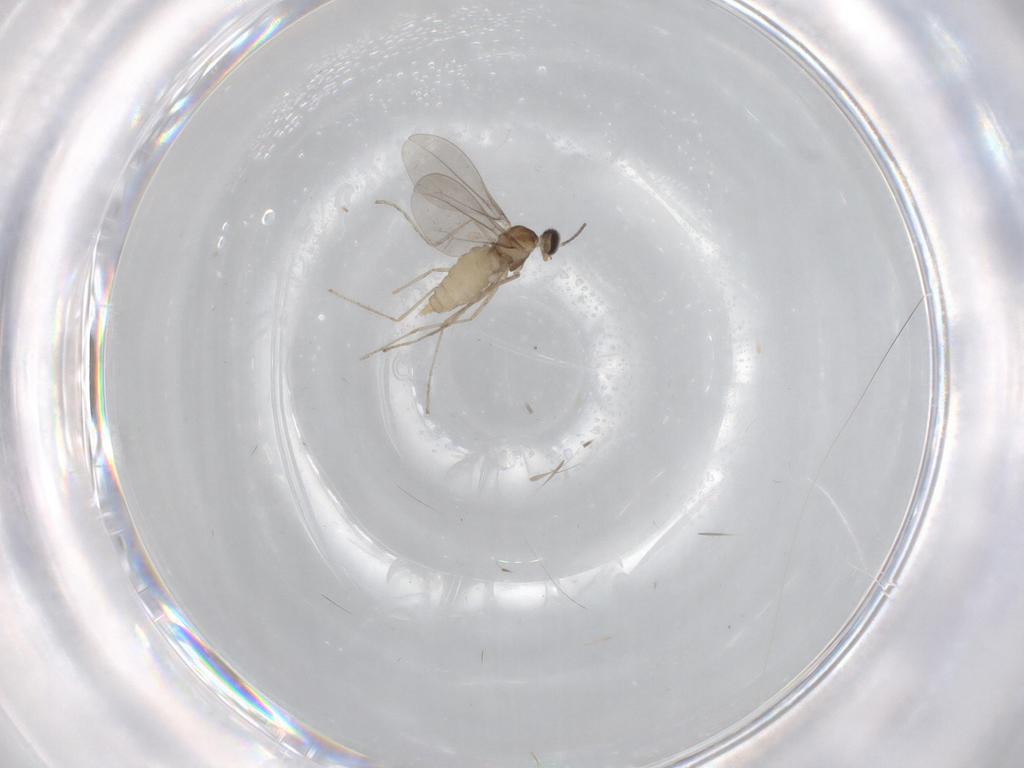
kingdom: Animalia
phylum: Arthropoda
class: Insecta
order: Diptera
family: Cecidomyiidae
